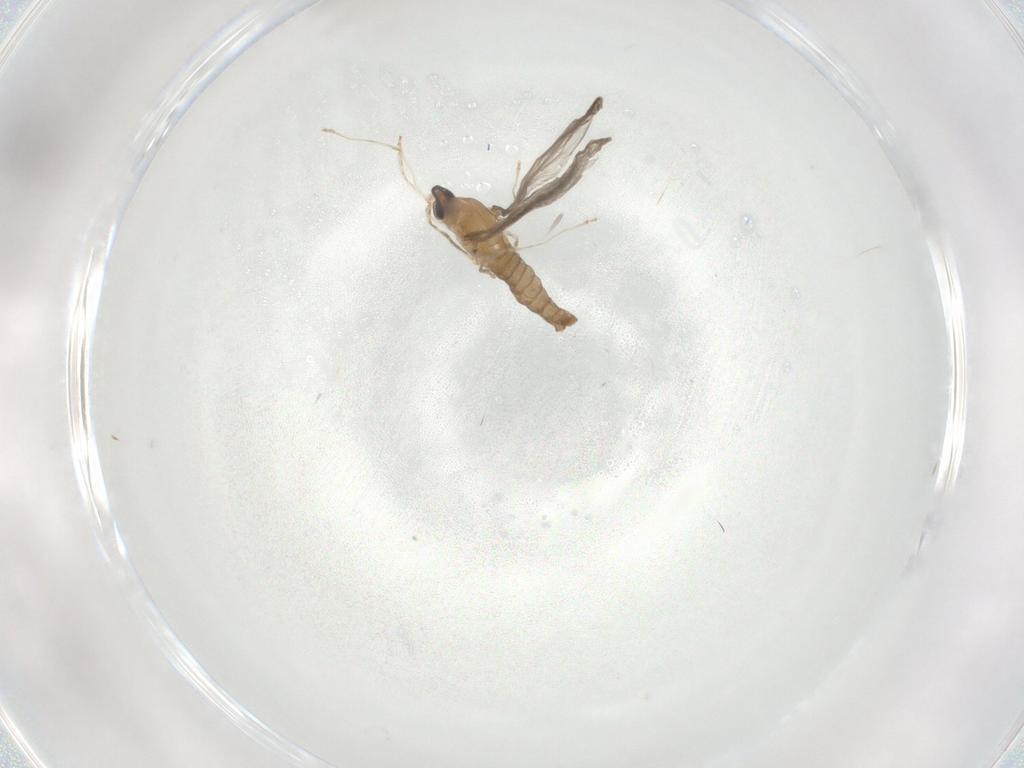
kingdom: Animalia
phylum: Arthropoda
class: Insecta
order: Diptera
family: Cecidomyiidae
